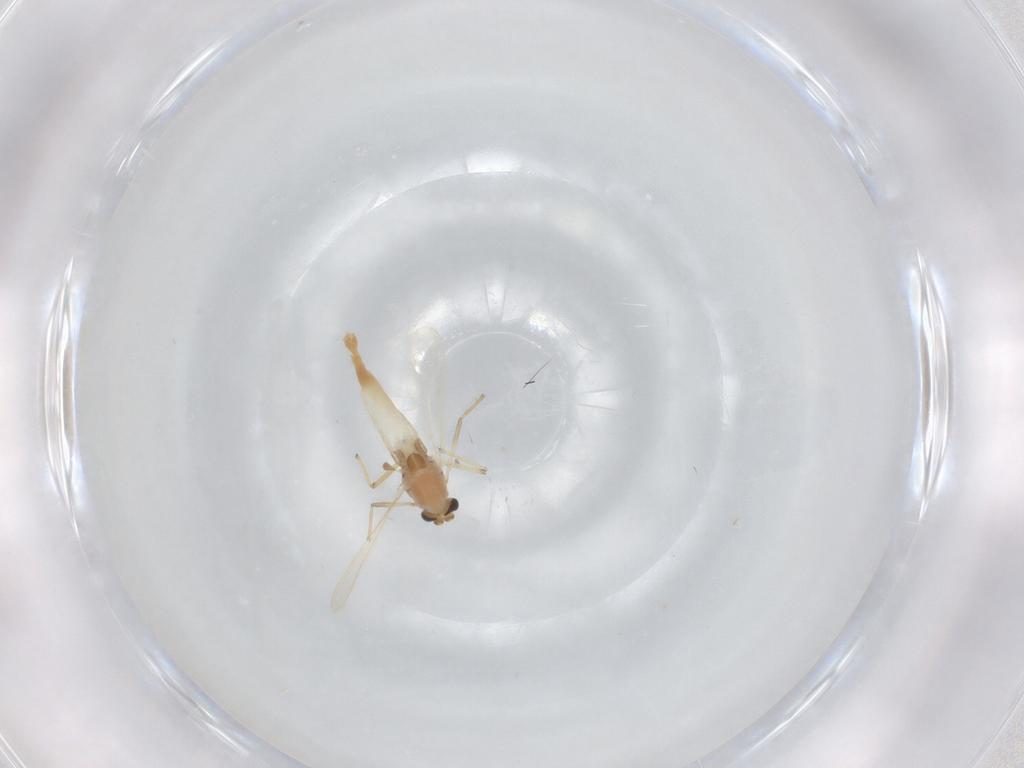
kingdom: Animalia
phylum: Arthropoda
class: Insecta
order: Diptera
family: Chironomidae
